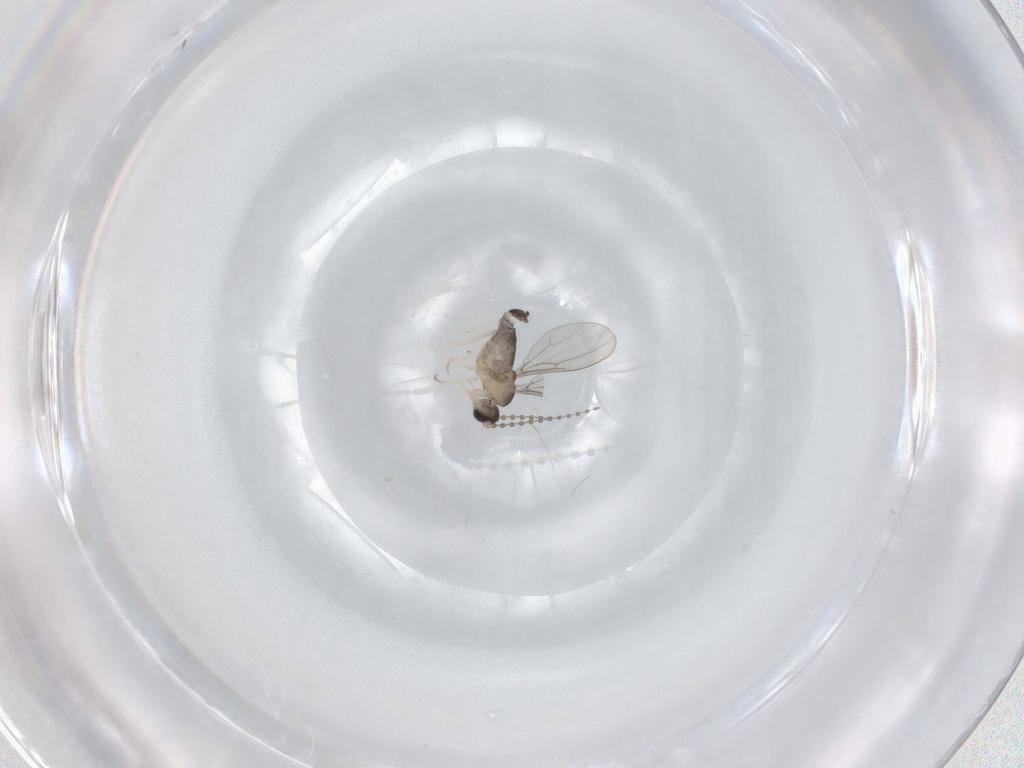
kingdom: Animalia
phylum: Arthropoda
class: Insecta
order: Diptera
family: Cecidomyiidae
